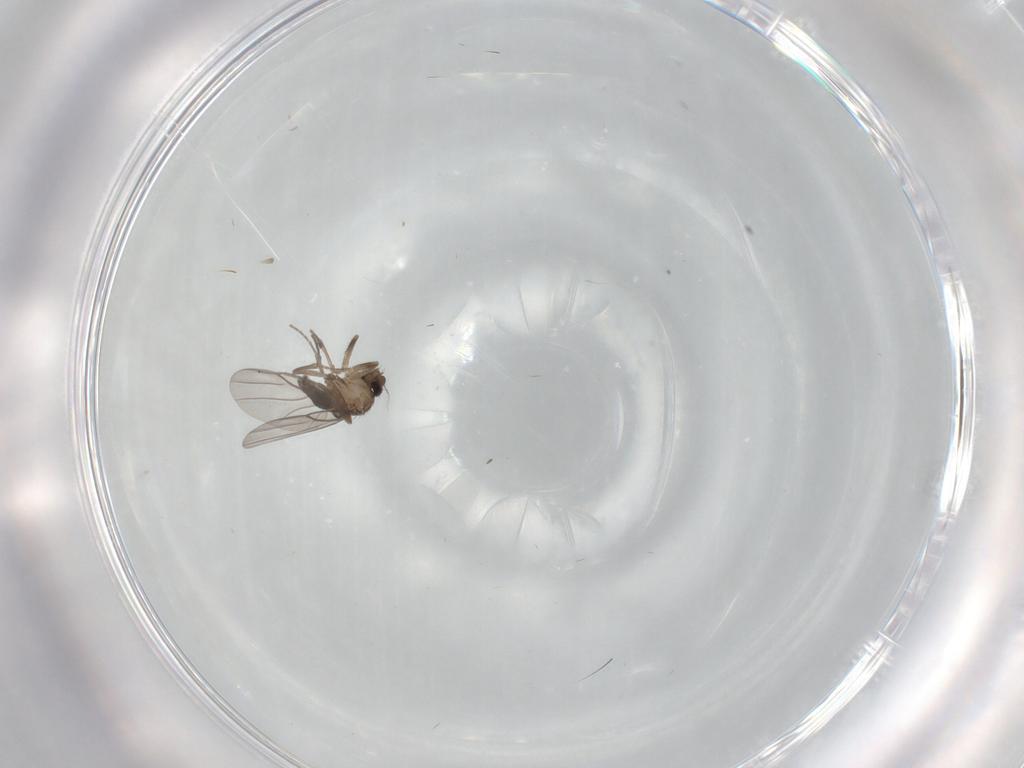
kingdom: Animalia
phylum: Arthropoda
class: Insecta
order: Diptera
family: Phoridae
